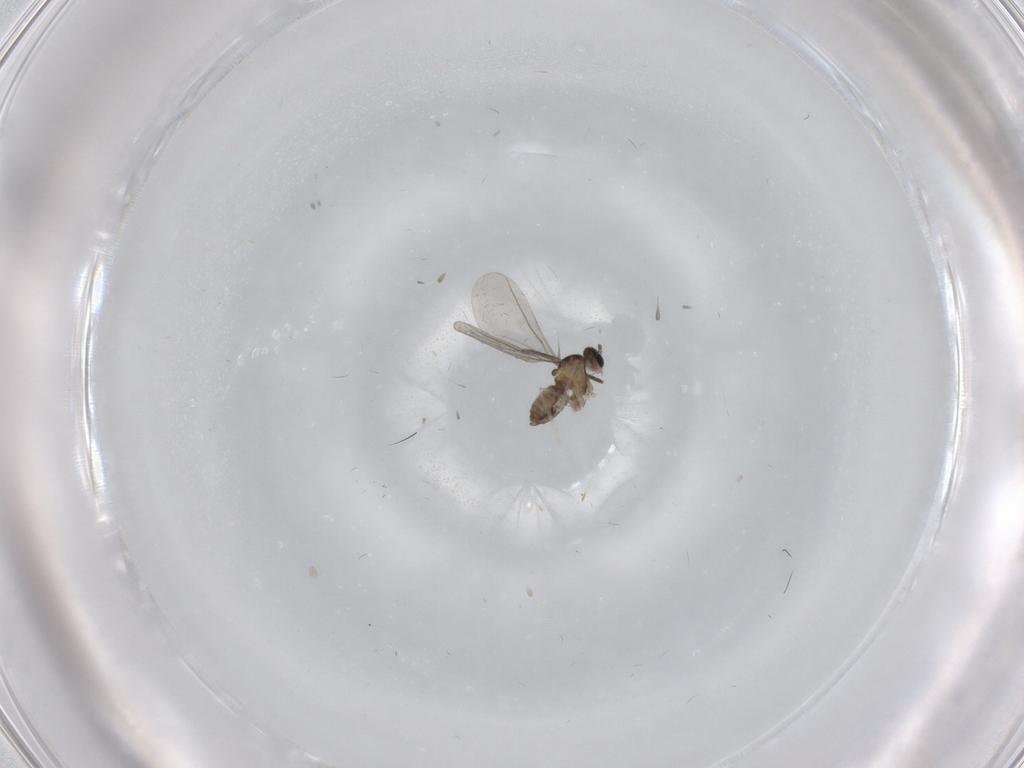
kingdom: Animalia
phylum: Arthropoda
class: Insecta
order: Diptera
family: Cecidomyiidae
